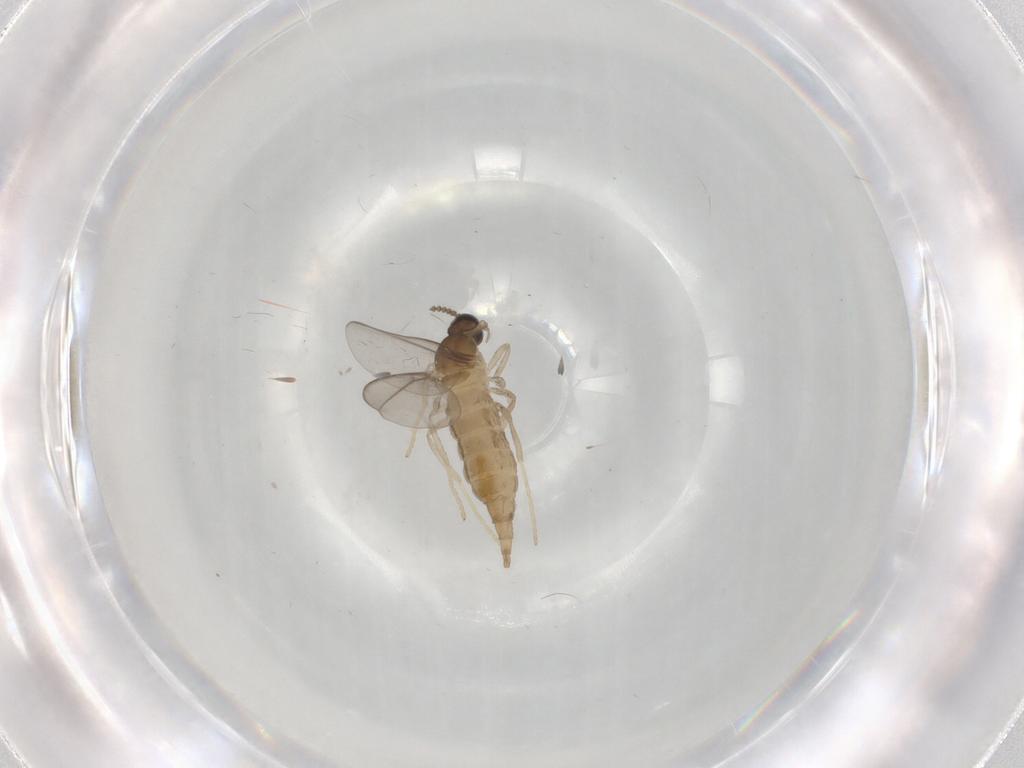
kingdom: Animalia
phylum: Arthropoda
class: Insecta
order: Diptera
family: Cecidomyiidae
